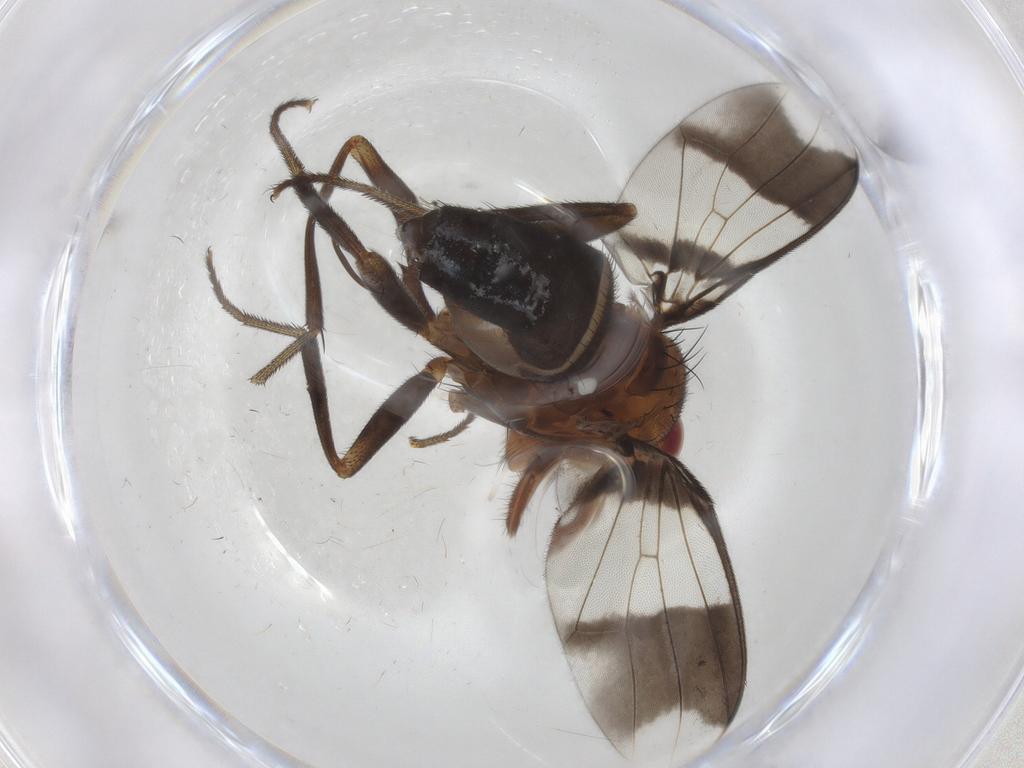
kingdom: Animalia
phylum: Arthropoda
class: Insecta
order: Diptera
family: Richardiidae
